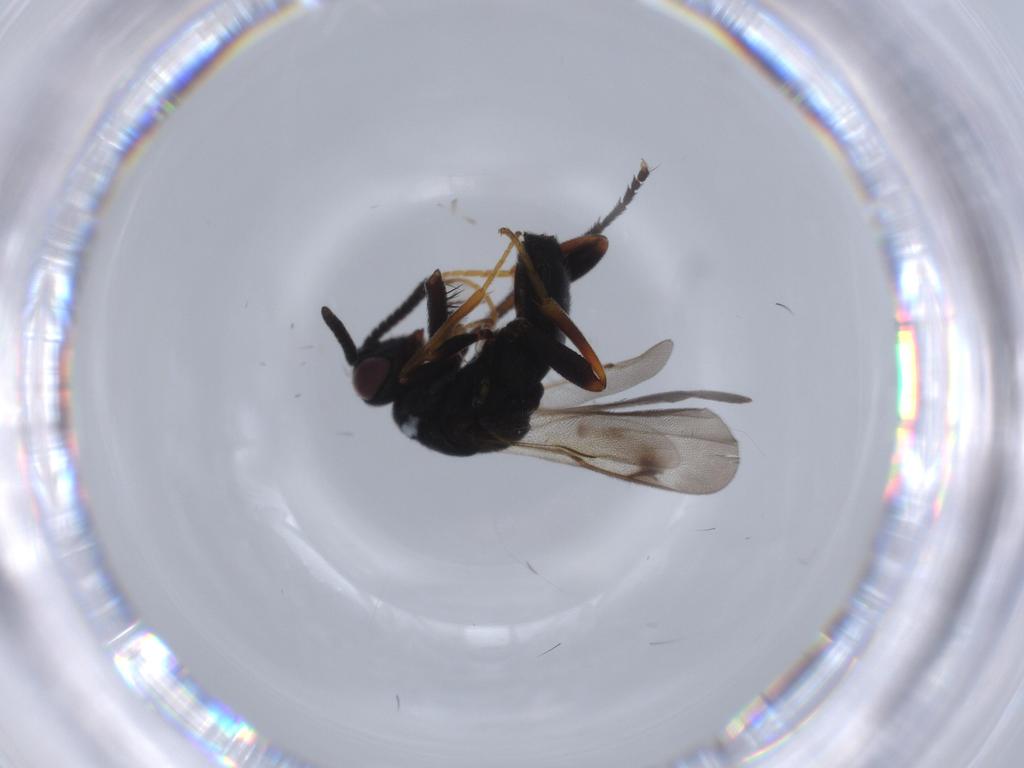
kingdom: Animalia
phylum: Arthropoda
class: Insecta
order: Hymenoptera
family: Torymidae
